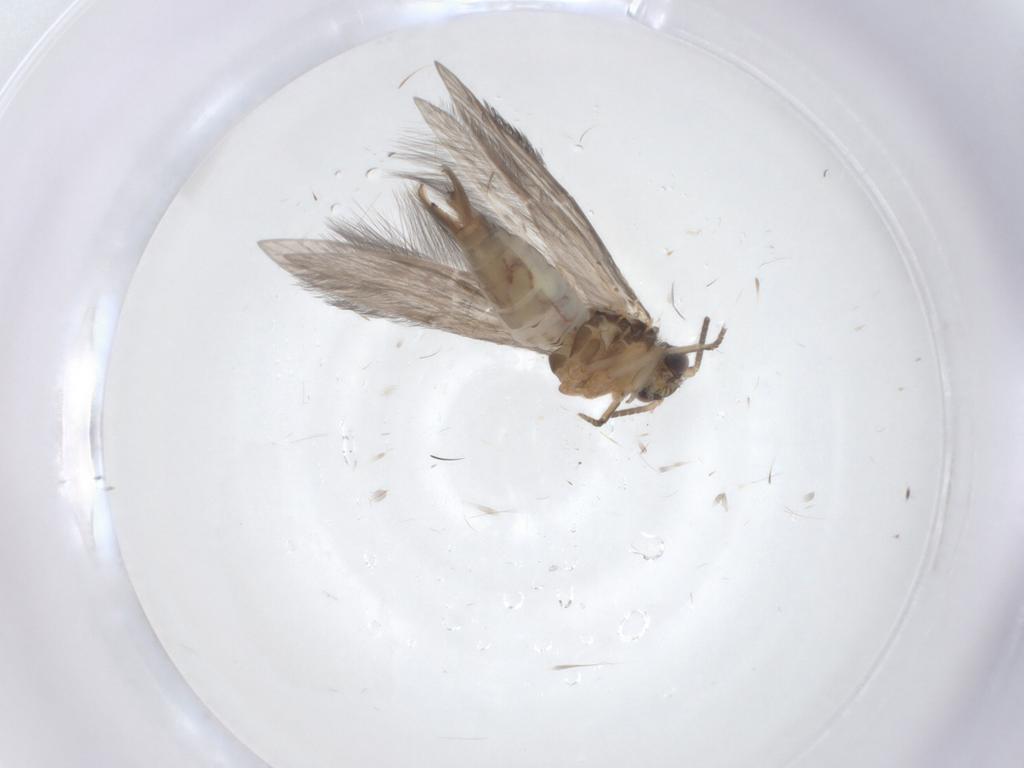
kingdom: Animalia
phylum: Arthropoda
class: Insecta
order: Trichoptera
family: Hydroptilidae
